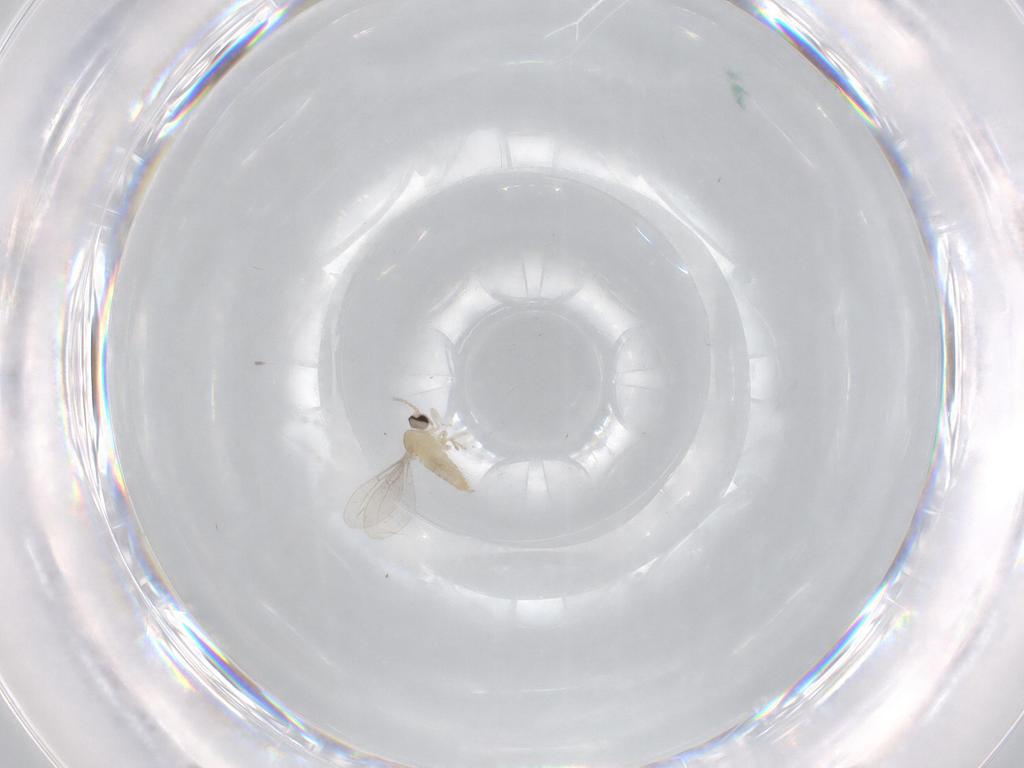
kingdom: Animalia
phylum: Arthropoda
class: Insecta
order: Diptera
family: Cecidomyiidae
